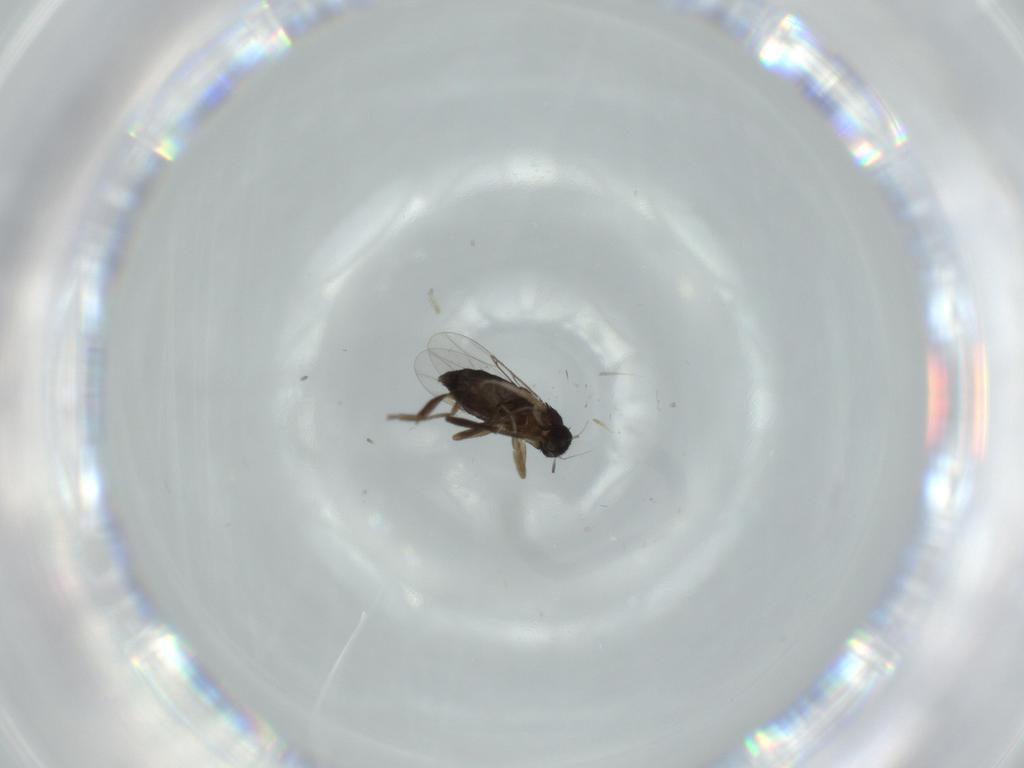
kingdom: Animalia
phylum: Arthropoda
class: Insecta
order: Diptera
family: Phoridae
